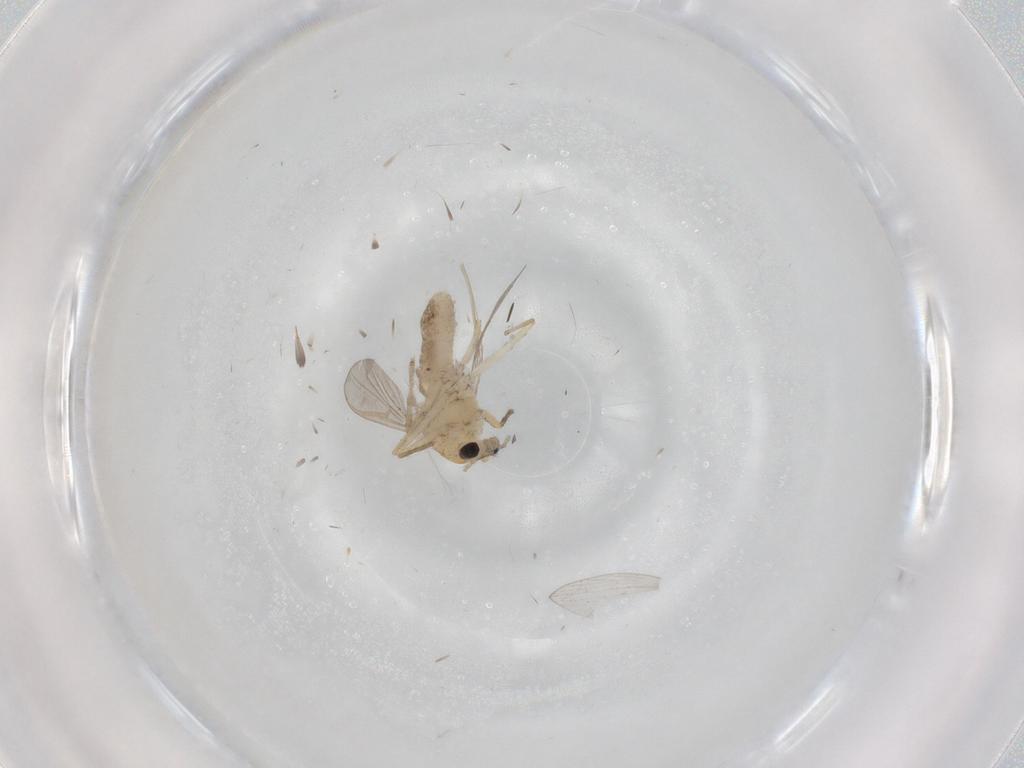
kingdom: Animalia
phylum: Arthropoda
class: Insecta
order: Diptera
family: Chironomidae
